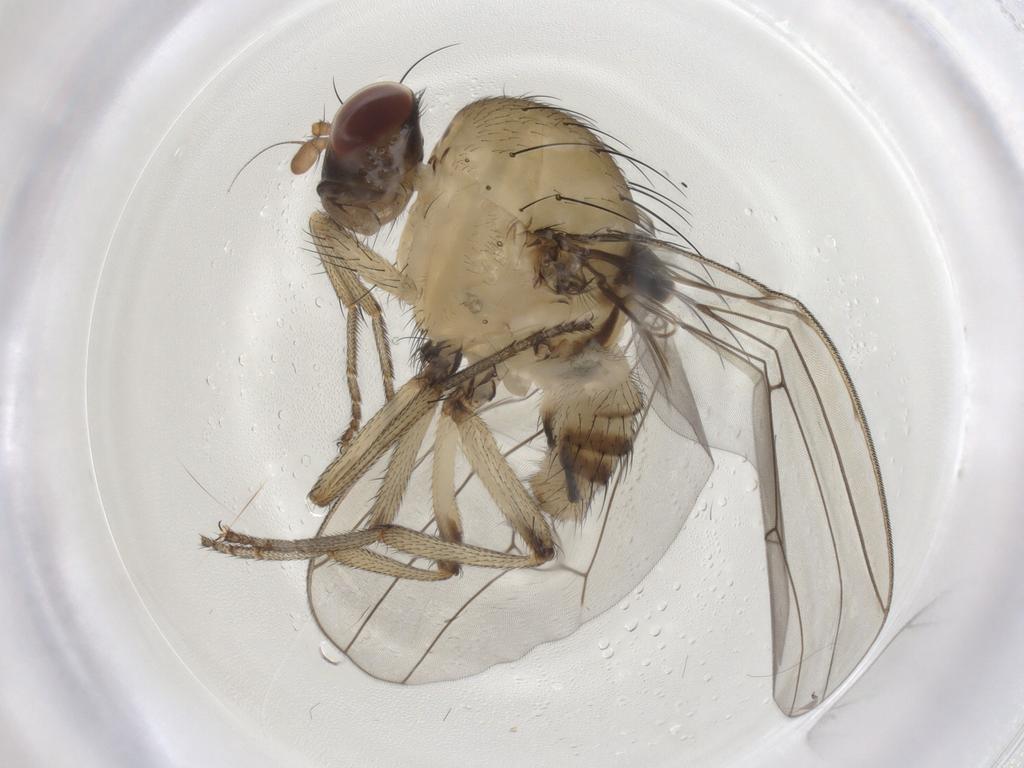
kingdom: Animalia
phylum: Arthropoda
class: Insecta
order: Diptera
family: Lauxaniidae
